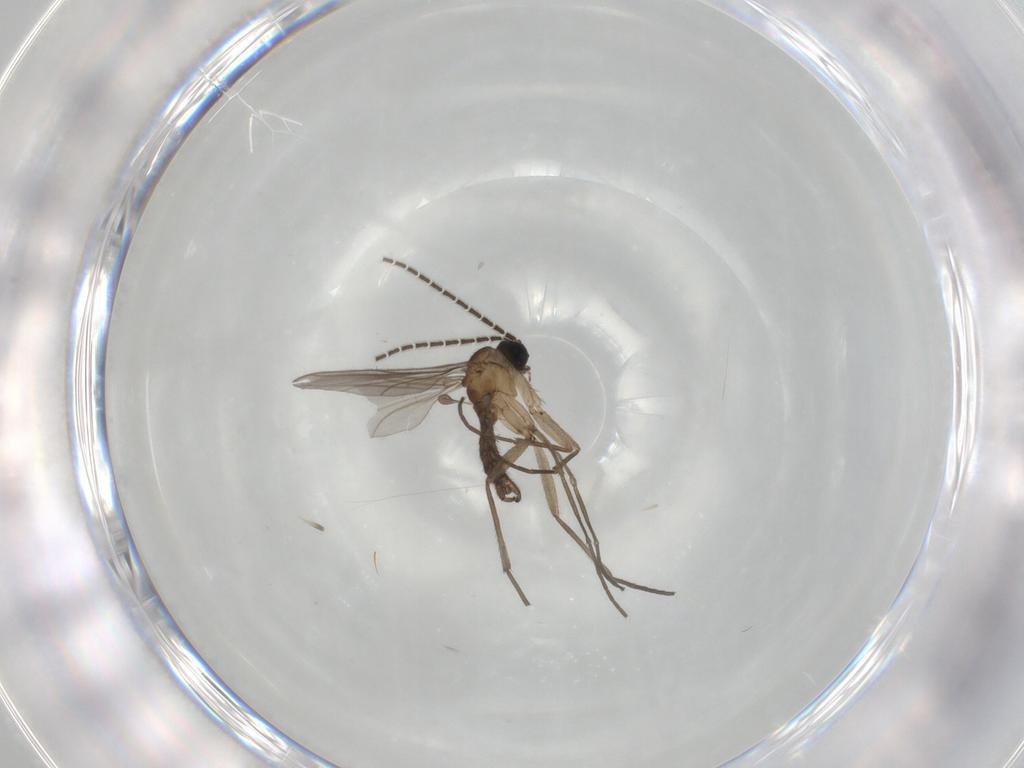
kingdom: Animalia
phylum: Arthropoda
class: Insecta
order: Diptera
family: Sciaridae
